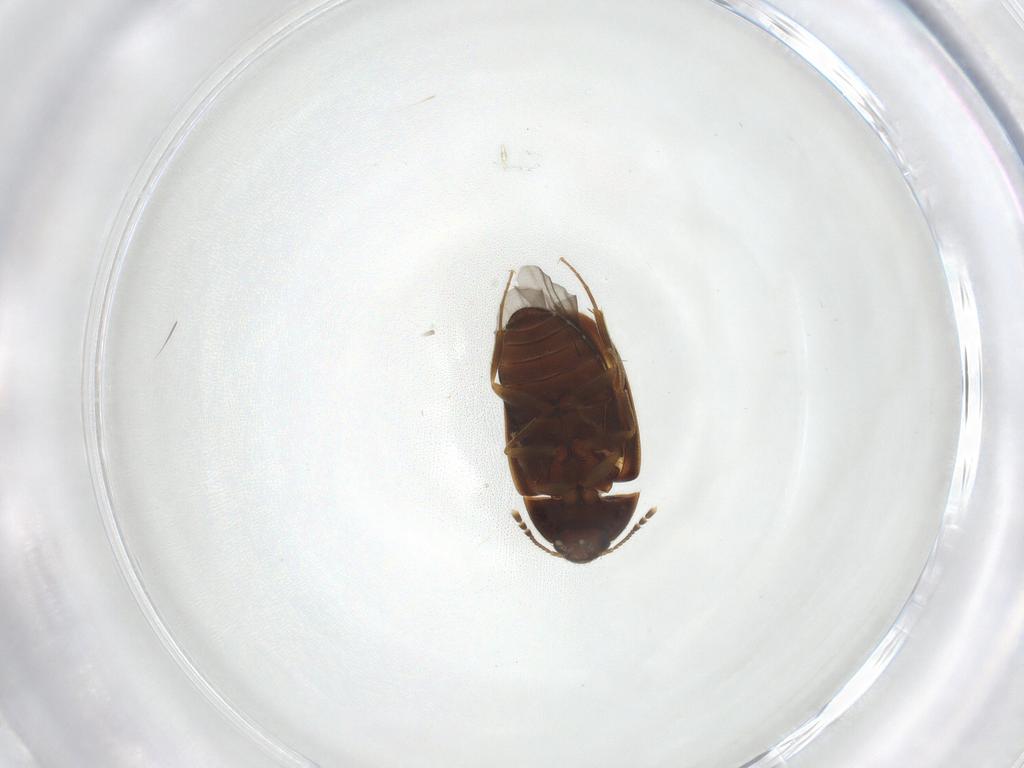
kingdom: Animalia
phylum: Arthropoda
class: Insecta
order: Coleoptera
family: Mycetophagidae
